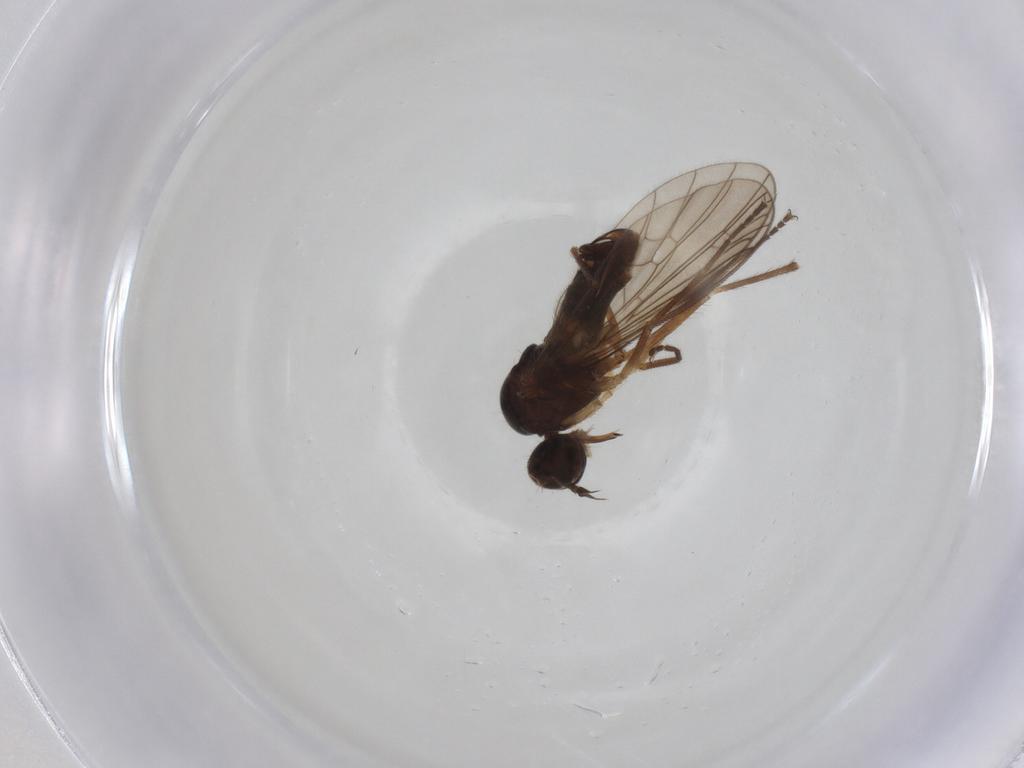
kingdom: Animalia
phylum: Arthropoda
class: Insecta
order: Diptera
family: Empididae
